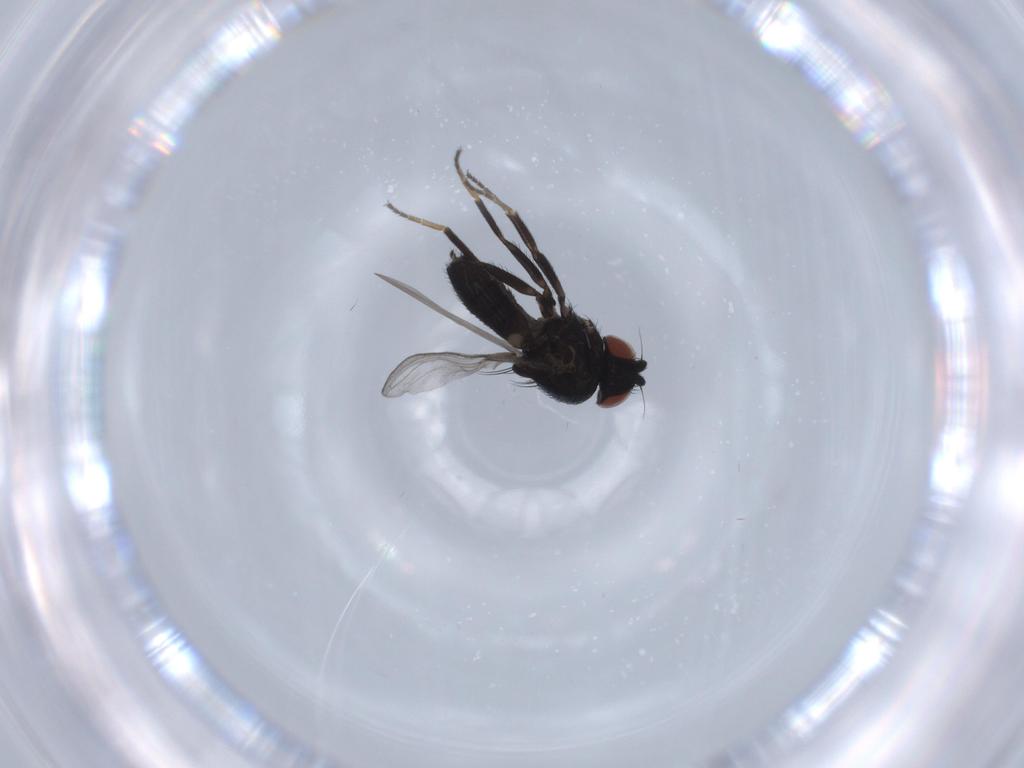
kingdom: Animalia
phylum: Arthropoda
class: Insecta
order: Diptera
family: Milichiidae
